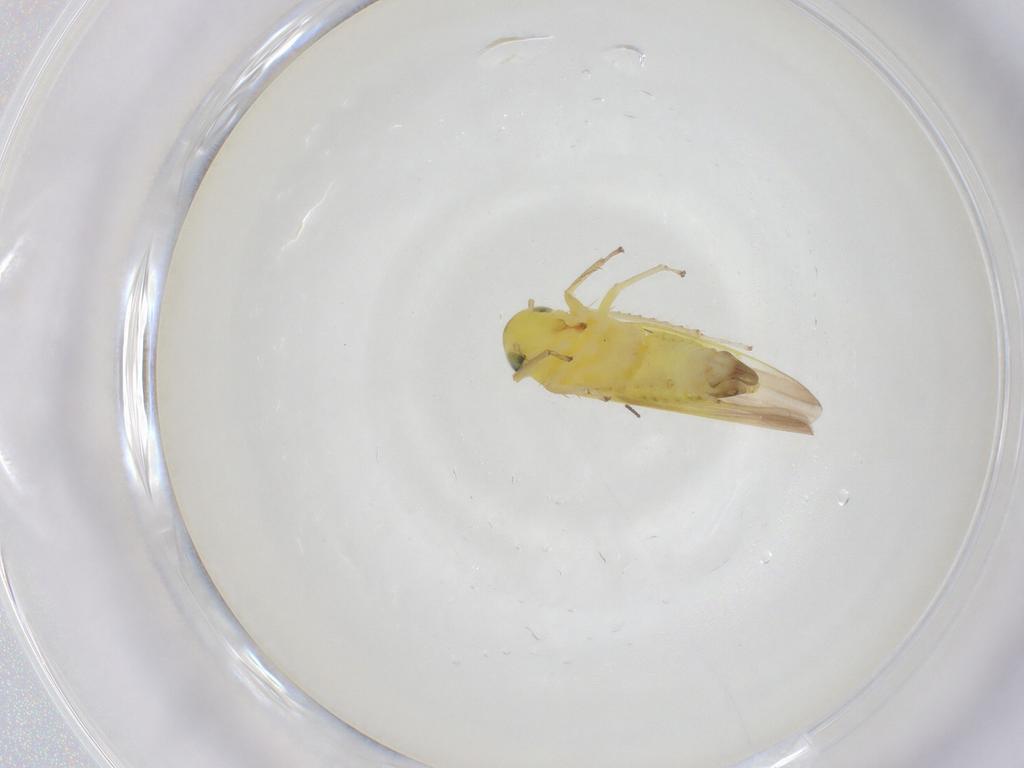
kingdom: Animalia
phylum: Arthropoda
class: Insecta
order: Hemiptera
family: Cicadellidae
